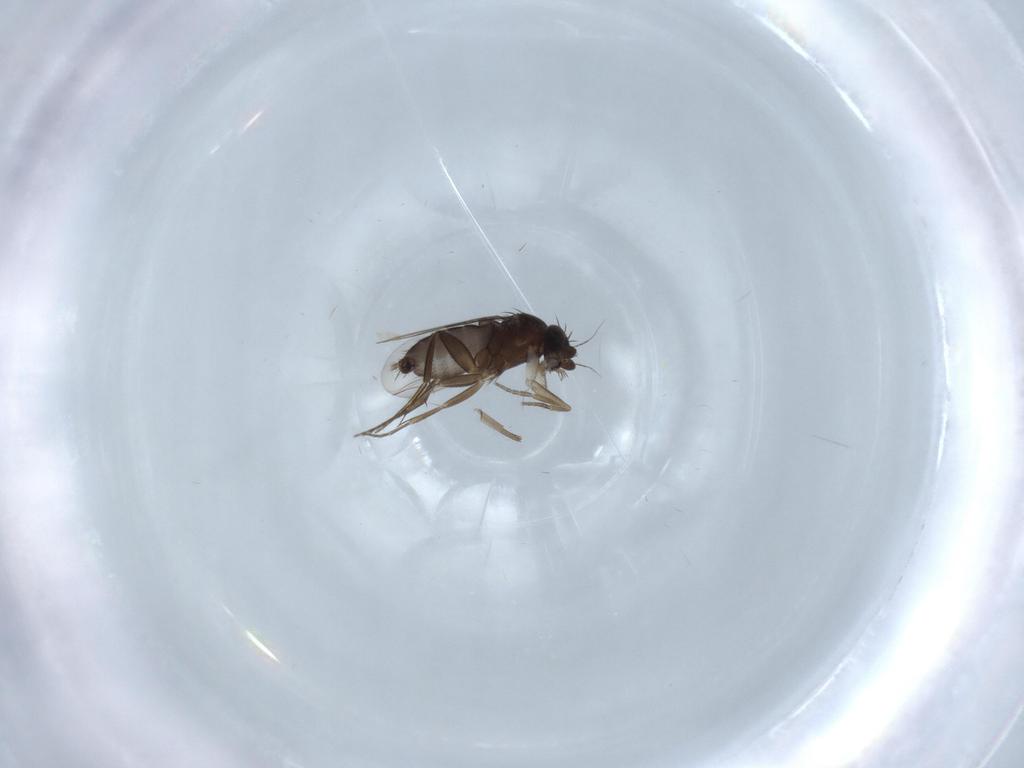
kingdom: Animalia
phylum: Arthropoda
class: Insecta
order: Diptera
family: Phoridae
